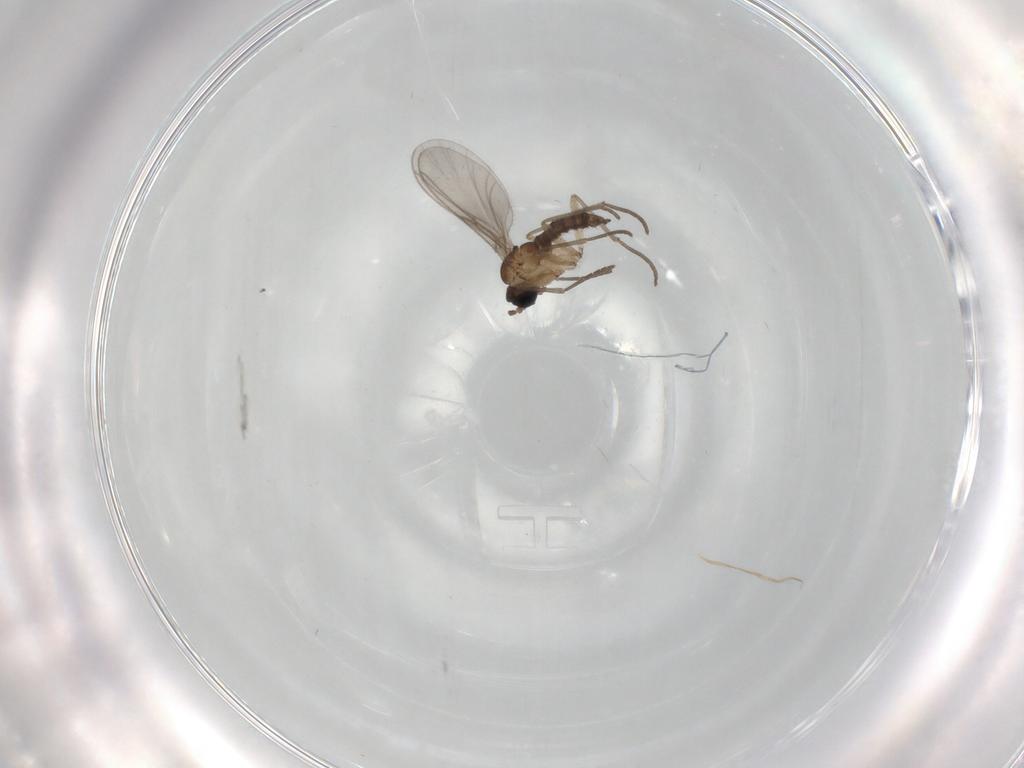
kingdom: Animalia
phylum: Arthropoda
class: Insecta
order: Diptera
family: Sciaridae
